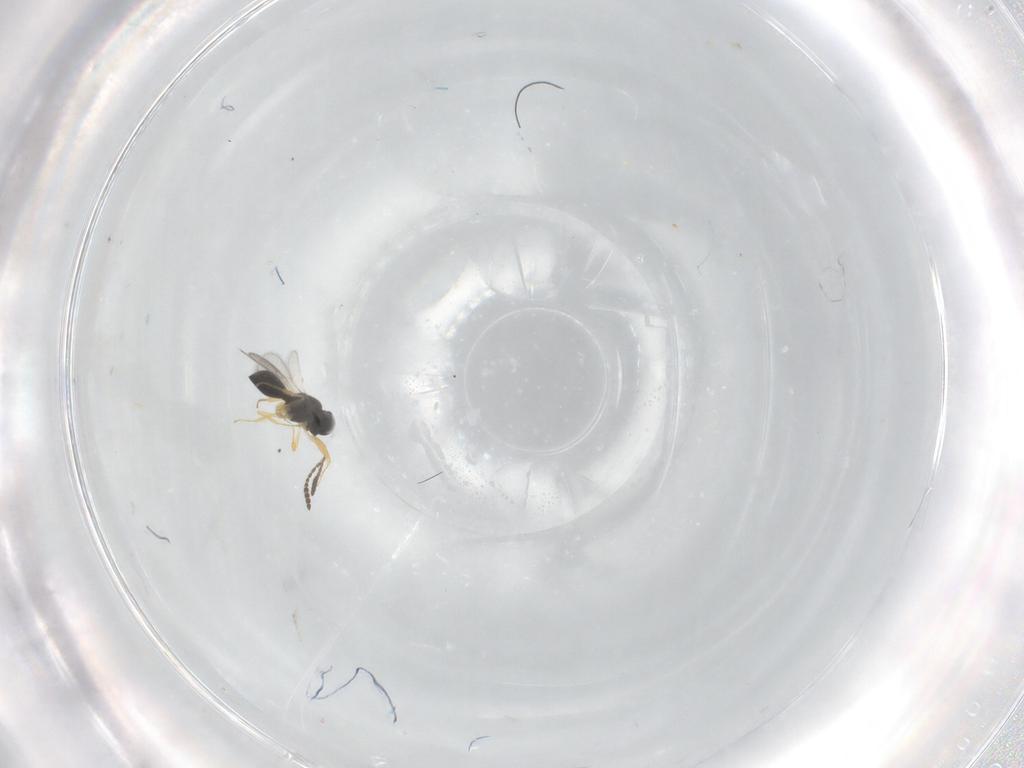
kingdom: Animalia
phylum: Arthropoda
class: Insecta
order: Hymenoptera
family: Scelionidae
